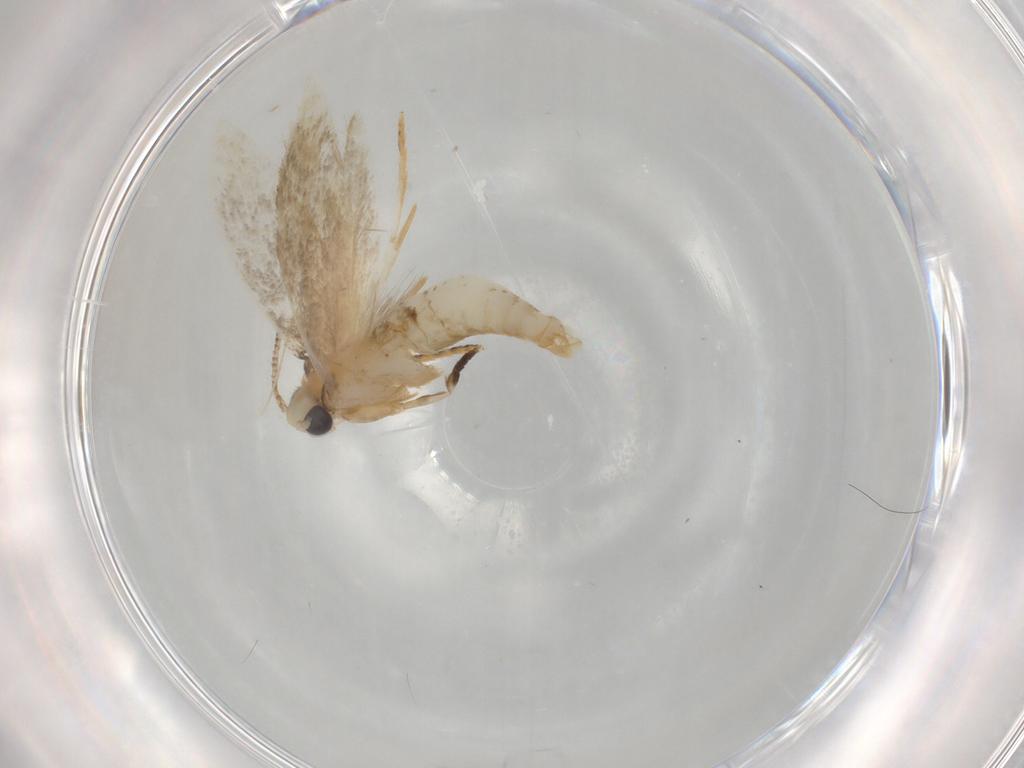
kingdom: Animalia
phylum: Arthropoda
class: Insecta
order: Lepidoptera
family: Tineidae
